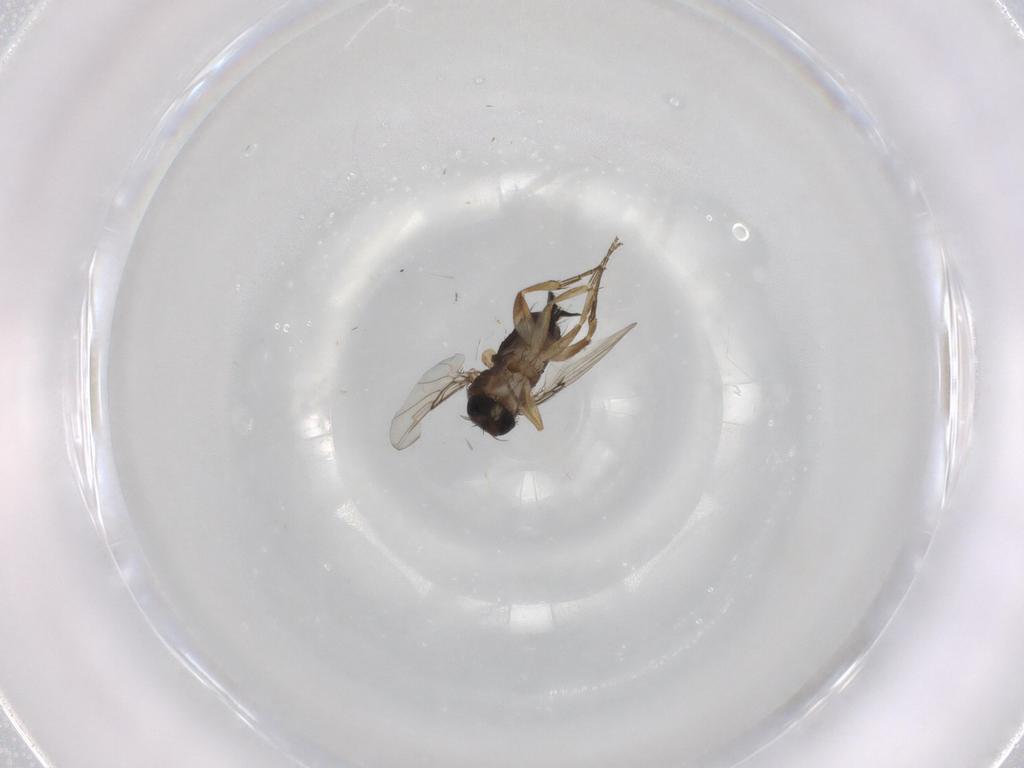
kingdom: Animalia
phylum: Arthropoda
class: Insecta
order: Diptera
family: Phoridae
